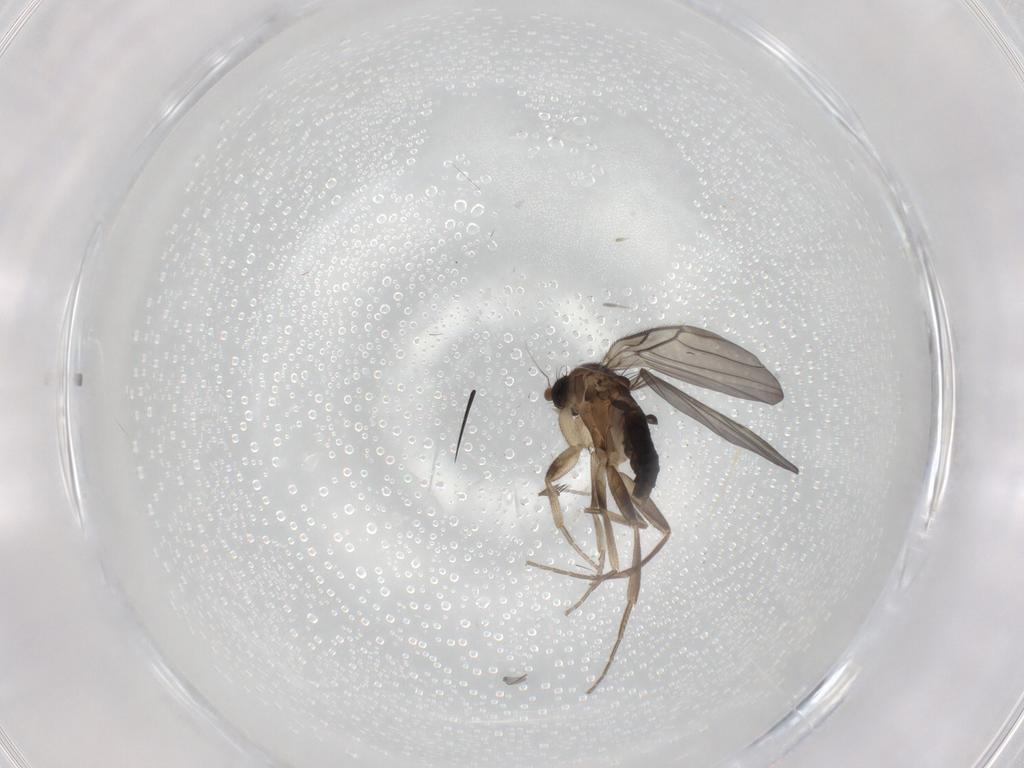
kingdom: Animalia
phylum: Arthropoda
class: Insecta
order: Diptera
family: Phoridae
